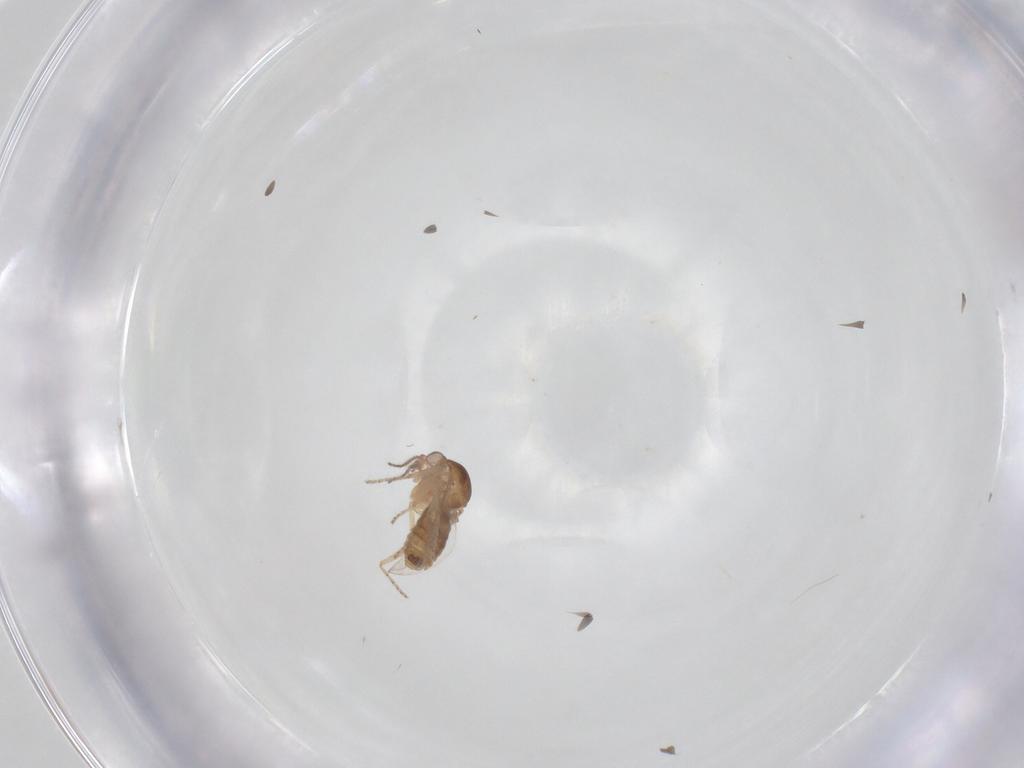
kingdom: Animalia
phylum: Arthropoda
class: Insecta
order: Diptera
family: Ceratopogonidae
